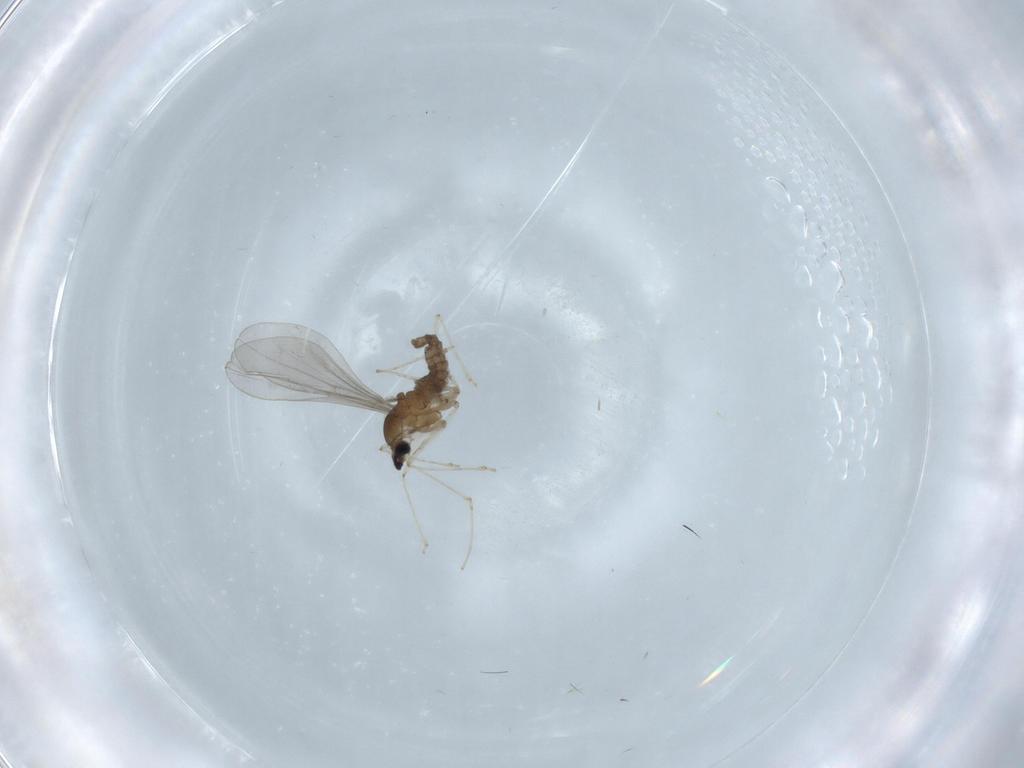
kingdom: Animalia
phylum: Arthropoda
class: Insecta
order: Diptera
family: Cecidomyiidae
